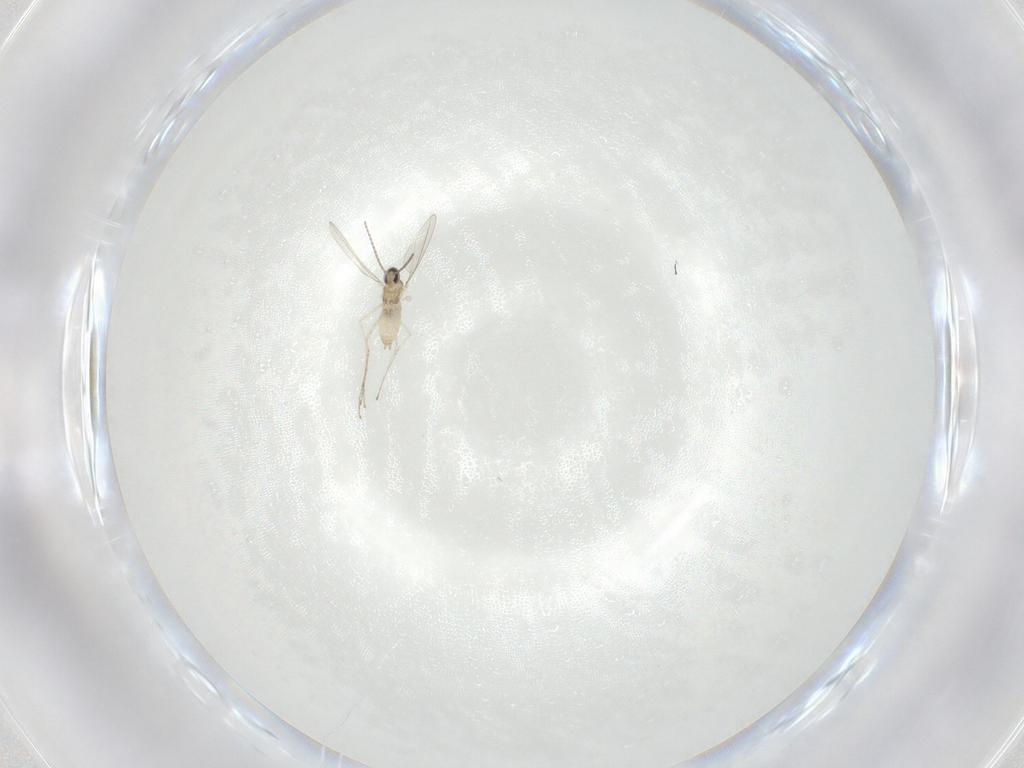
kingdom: Animalia
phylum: Arthropoda
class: Insecta
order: Diptera
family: Cecidomyiidae
